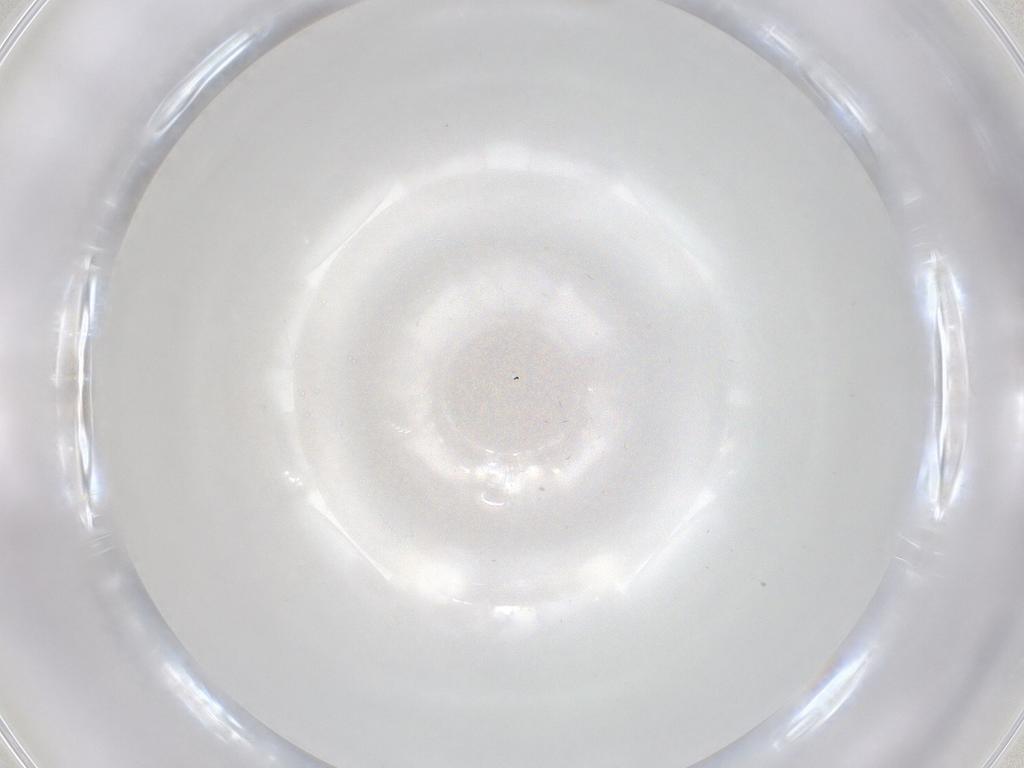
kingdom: Animalia
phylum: Arthropoda
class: Insecta
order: Diptera
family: Cecidomyiidae
